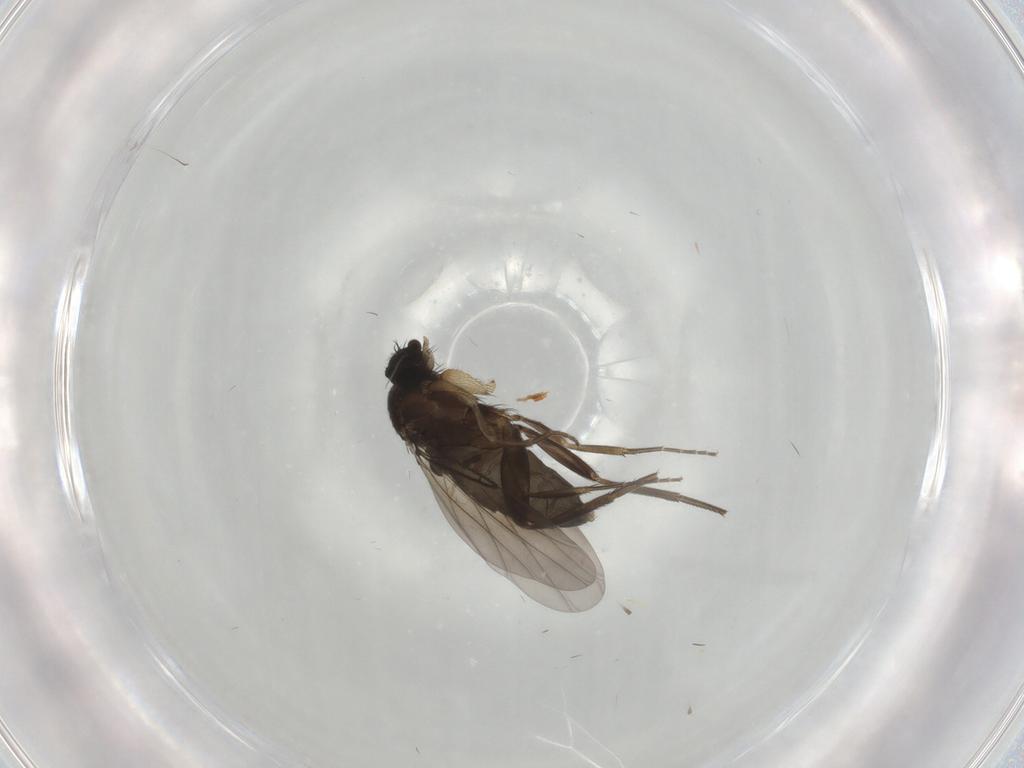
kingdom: Animalia
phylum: Arthropoda
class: Insecta
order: Diptera
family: Phoridae
